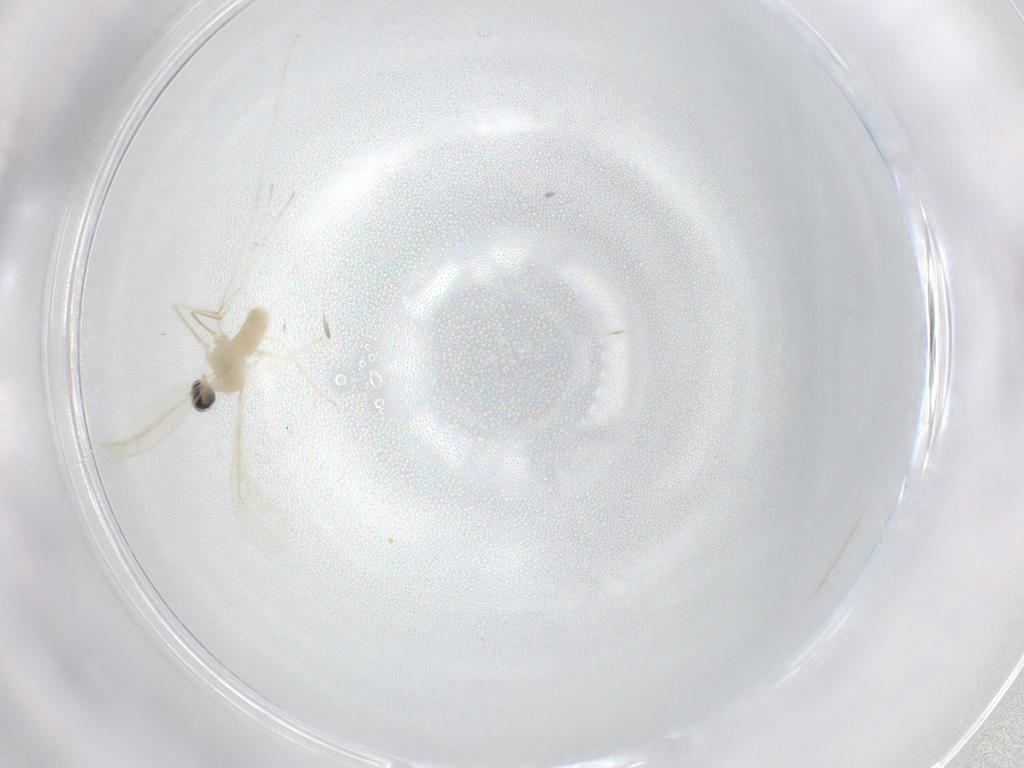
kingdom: Animalia
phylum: Arthropoda
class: Insecta
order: Diptera
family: Cecidomyiidae
